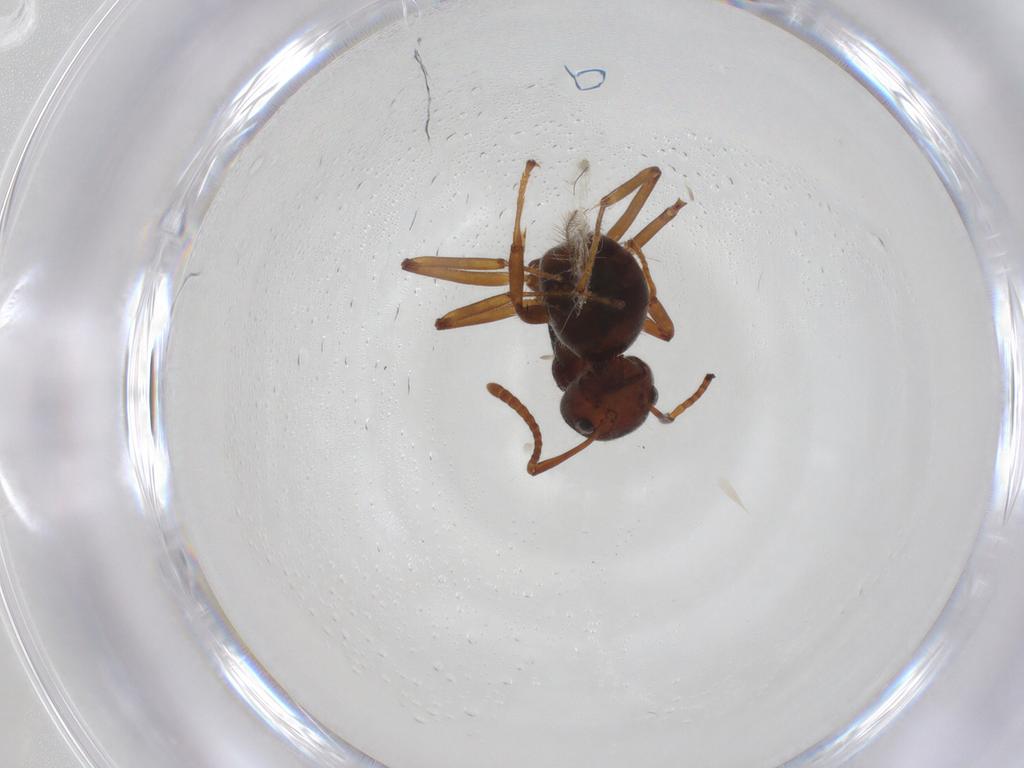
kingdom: Animalia
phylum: Arthropoda
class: Insecta
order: Hymenoptera
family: Formicidae
